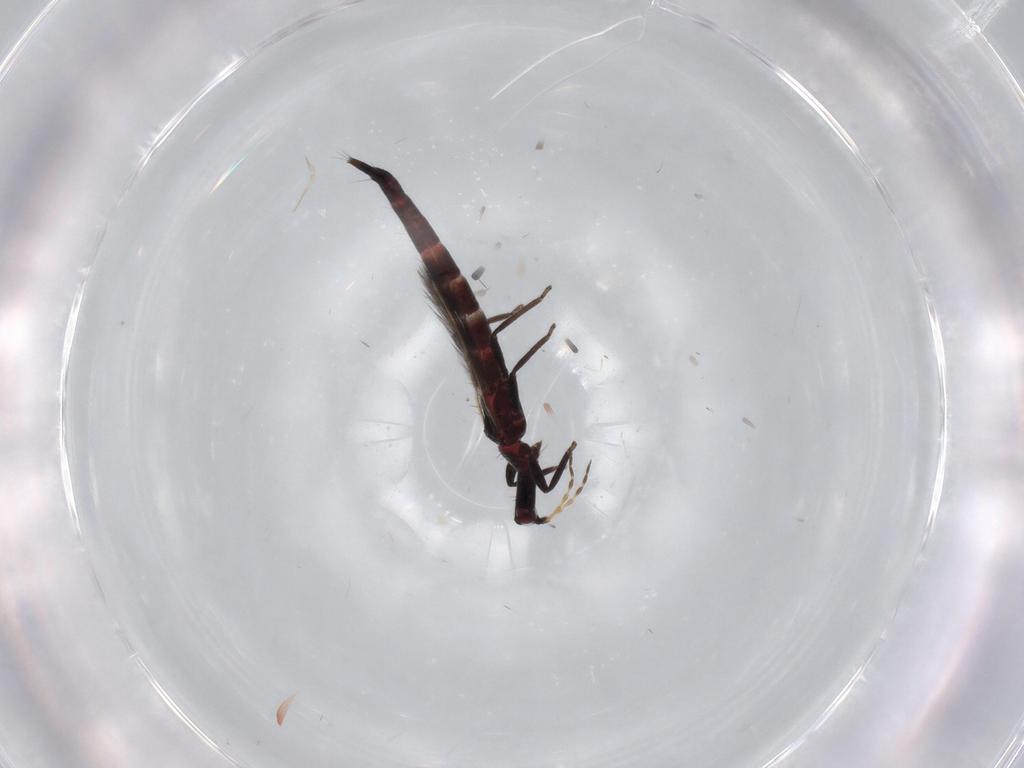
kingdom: Animalia
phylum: Arthropoda
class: Insecta
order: Thysanoptera
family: Phlaeothripidae
